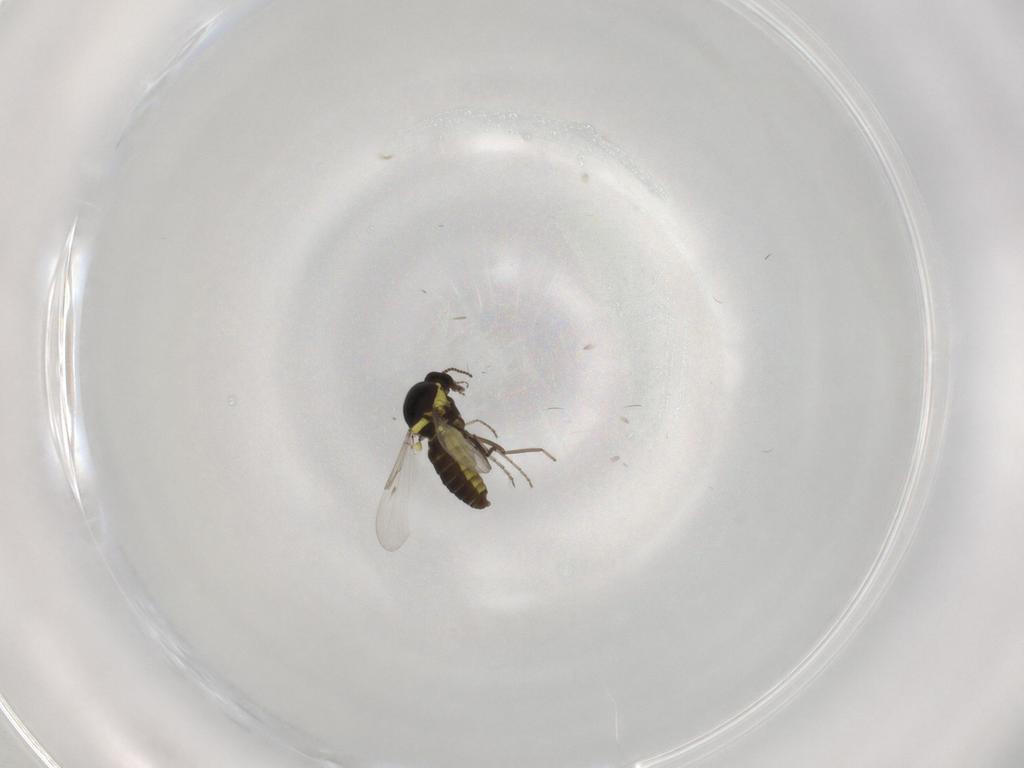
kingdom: Animalia
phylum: Arthropoda
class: Insecta
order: Diptera
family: Ceratopogonidae
